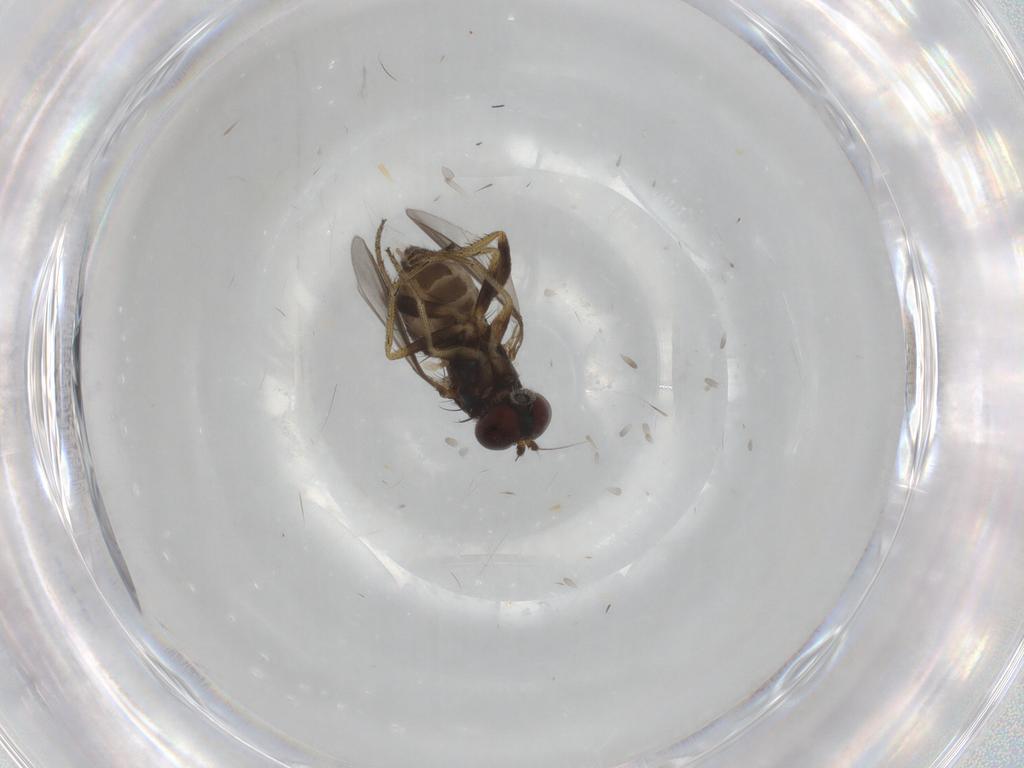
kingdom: Animalia
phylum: Arthropoda
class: Insecta
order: Diptera
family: Dolichopodidae
